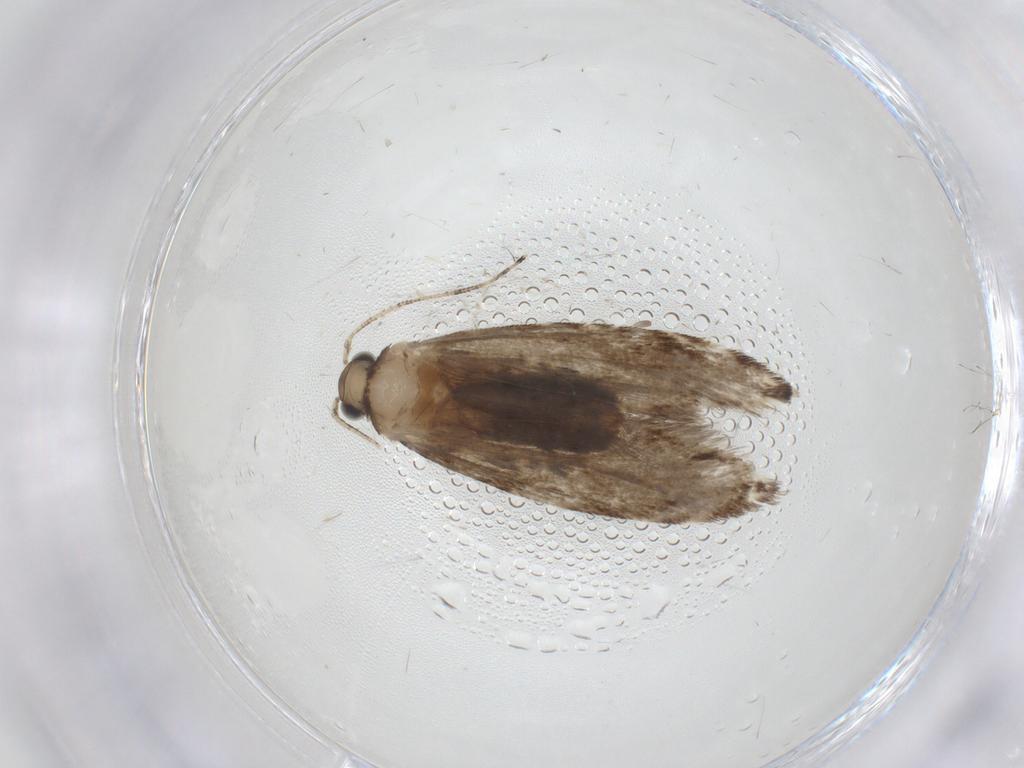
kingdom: Animalia
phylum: Arthropoda
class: Insecta
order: Lepidoptera
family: Tineidae
